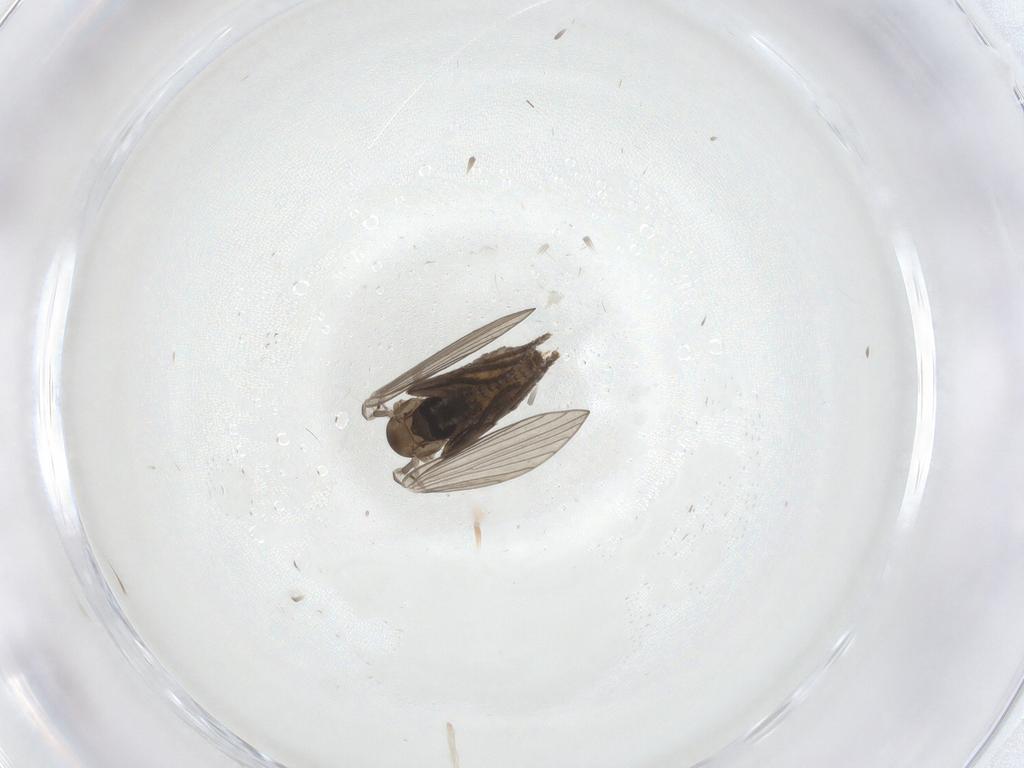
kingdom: Animalia
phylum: Arthropoda
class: Insecta
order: Diptera
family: Psychodidae
